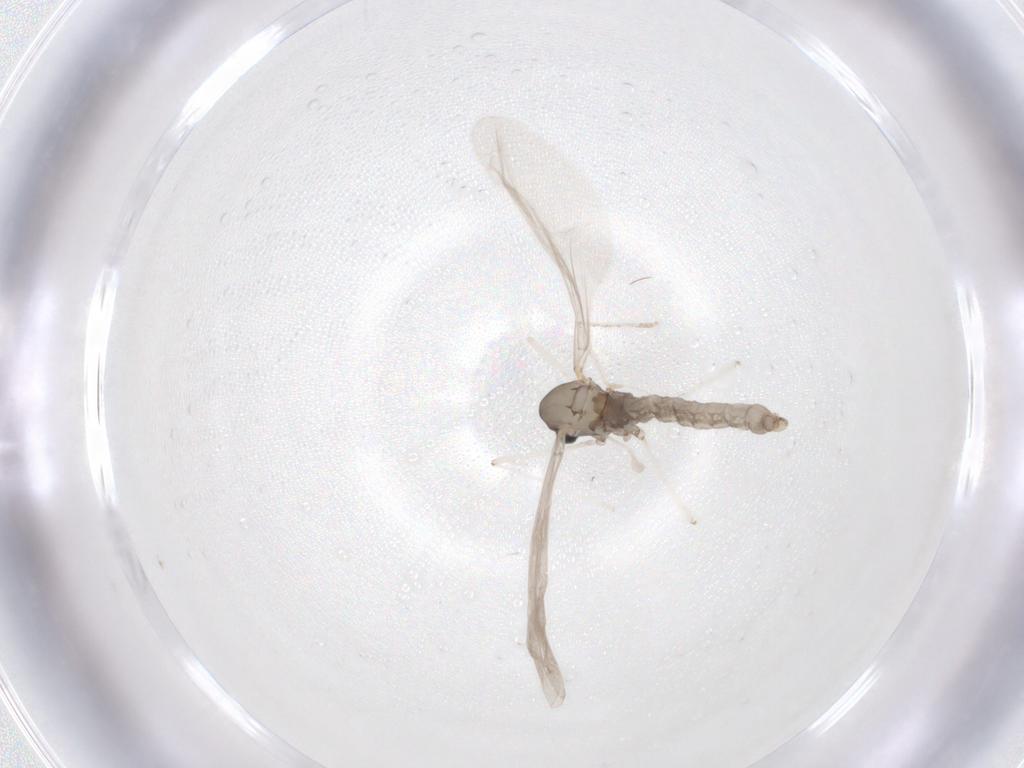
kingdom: Animalia
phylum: Arthropoda
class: Insecta
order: Diptera
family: Cecidomyiidae
